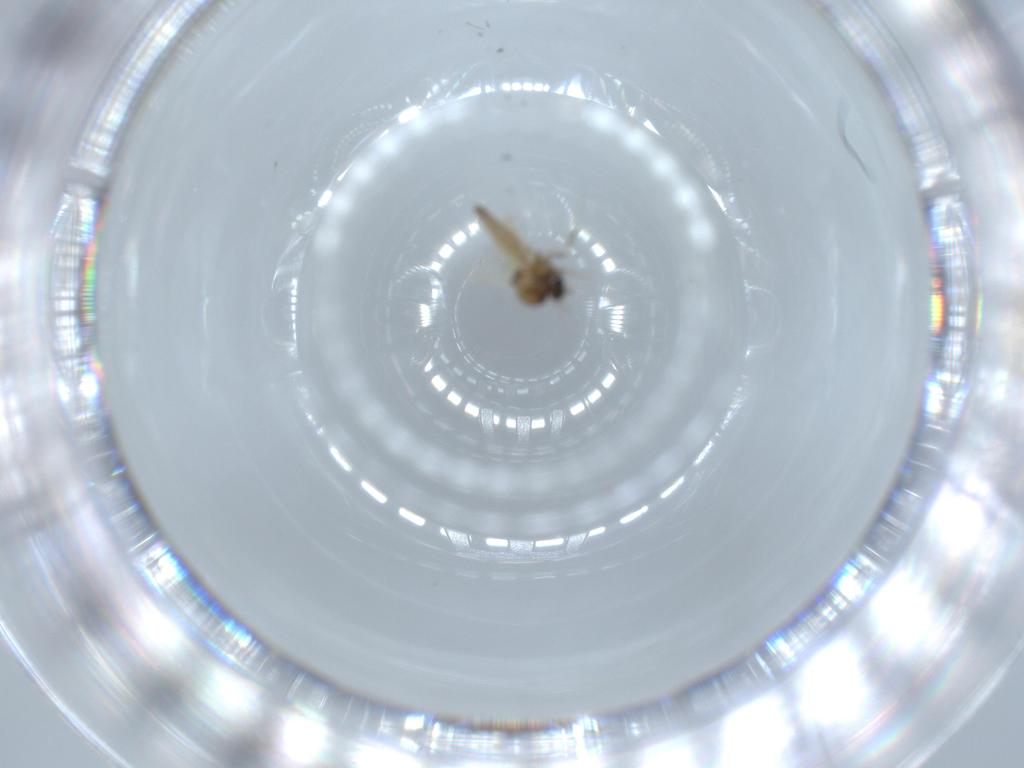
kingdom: Animalia
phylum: Arthropoda
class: Insecta
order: Diptera
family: Ceratopogonidae
